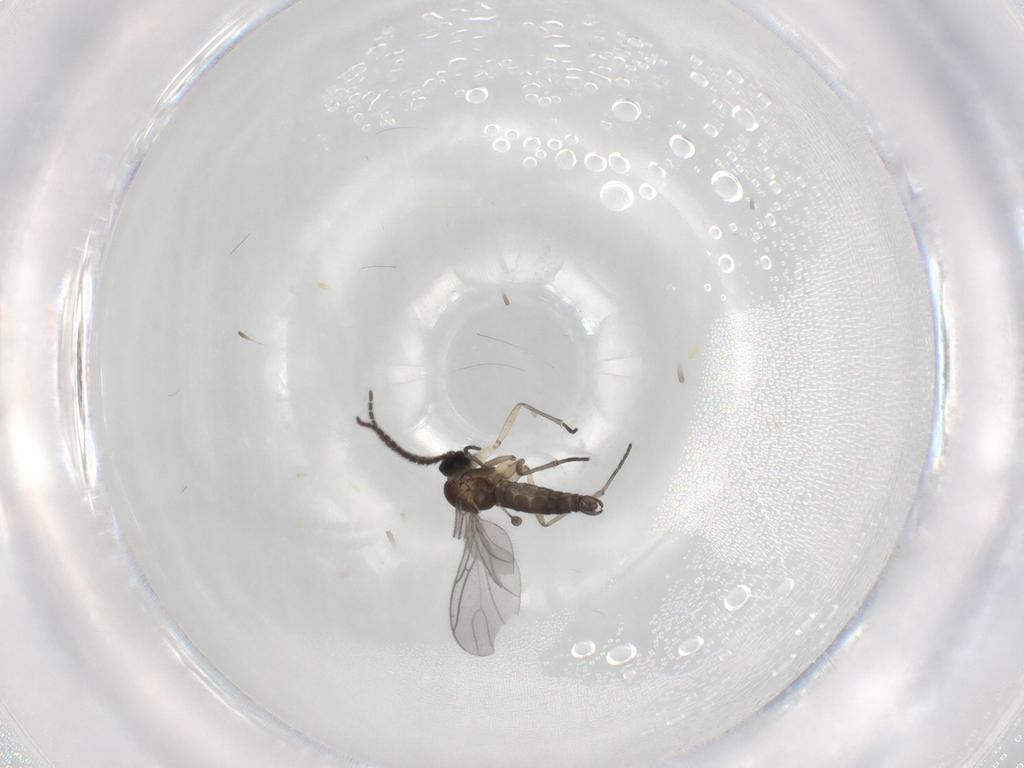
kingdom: Animalia
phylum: Arthropoda
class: Insecta
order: Diptera
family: Sciaridae
